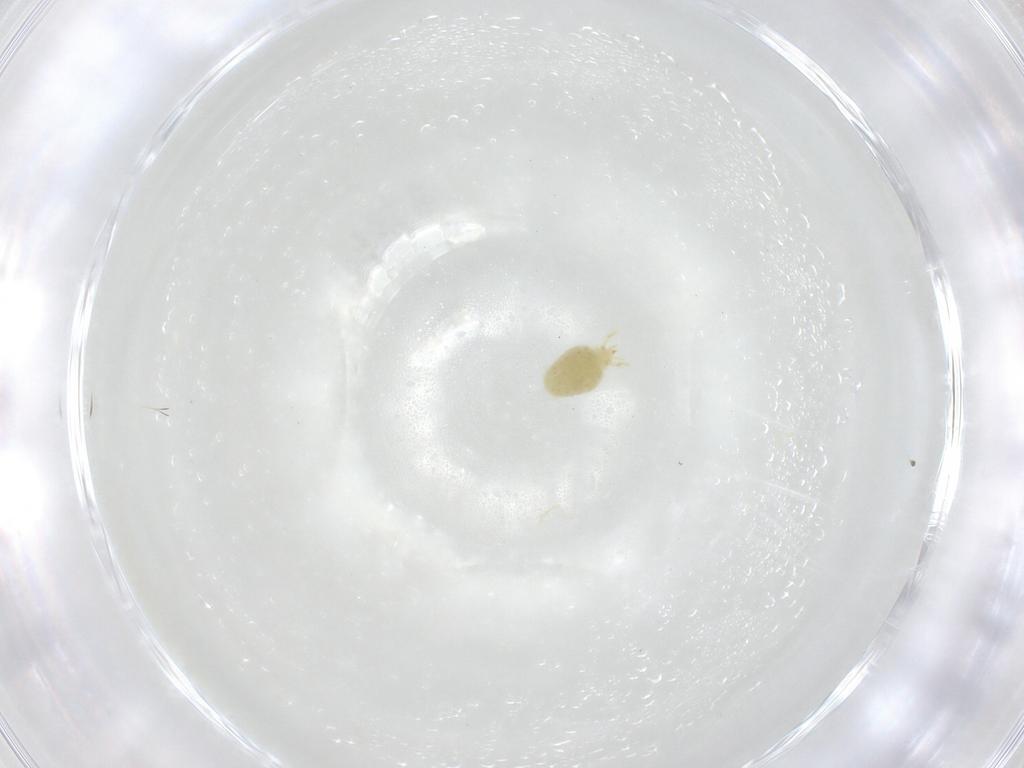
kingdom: Animalia
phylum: Arthropoda
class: Arachnida
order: Trombidiformes
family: Erythraeidae
